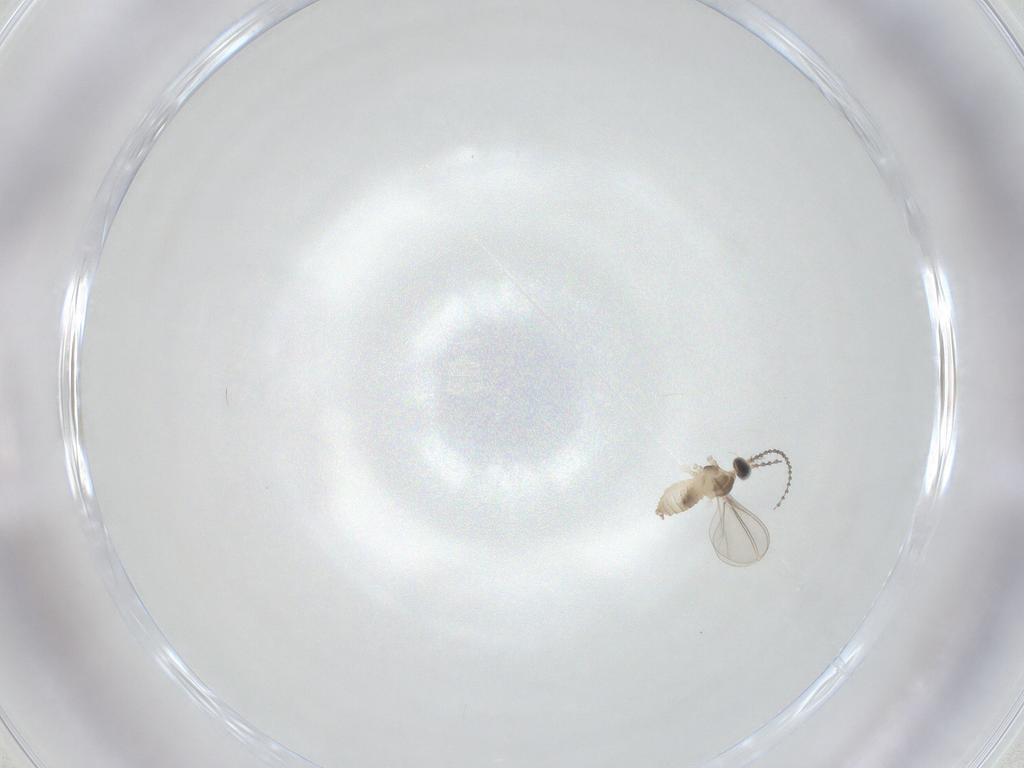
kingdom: Animalia
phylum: Arthropoda
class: Insecta
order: Diptera
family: Cecidomyiidae
